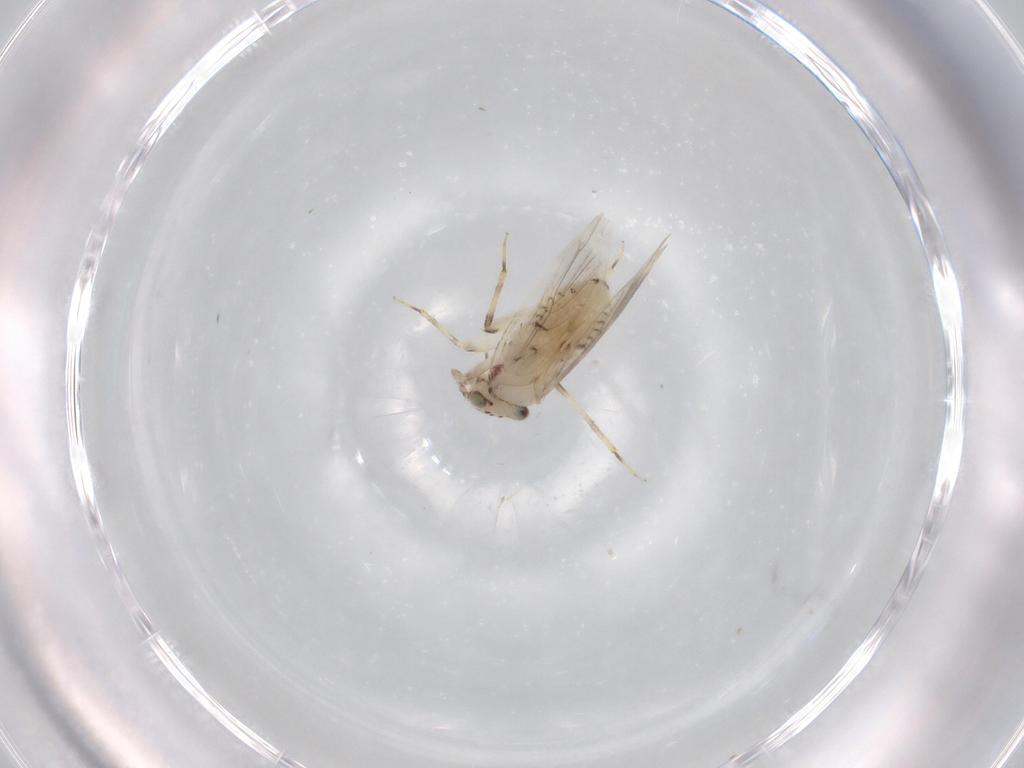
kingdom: Animalia
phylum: Arthropoda
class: Insecta
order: Psocodea
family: Lepidopsocidae
